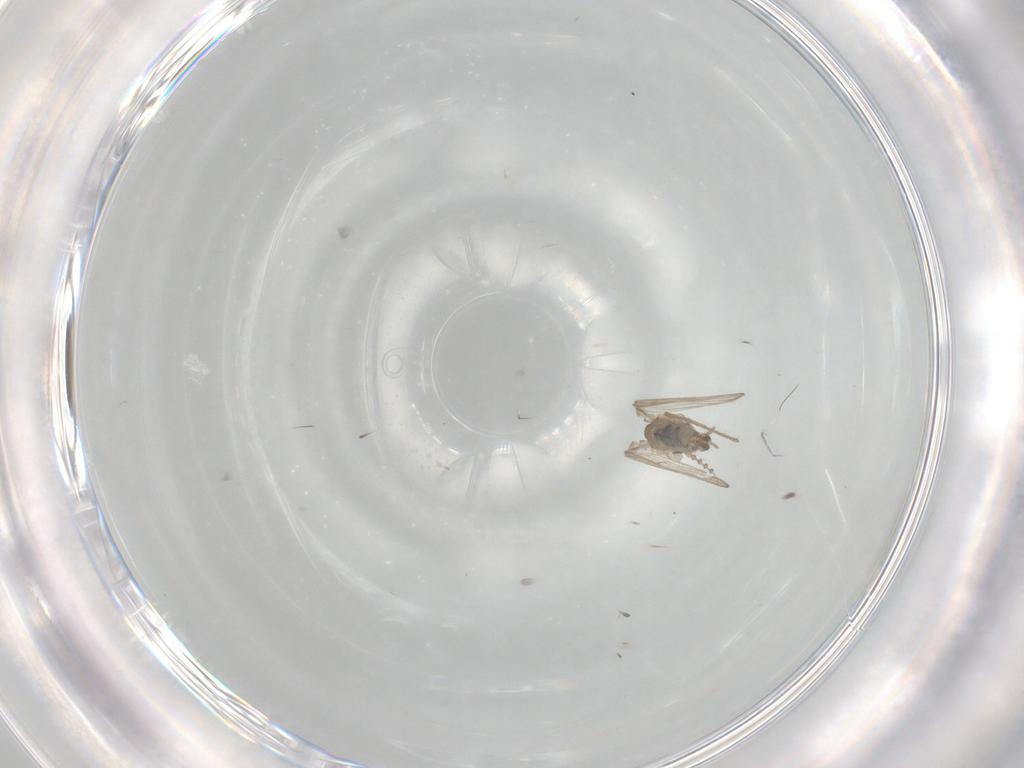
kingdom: Animalia
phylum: Arthropoda
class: Insecta
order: Diptera
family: Psychodidae
